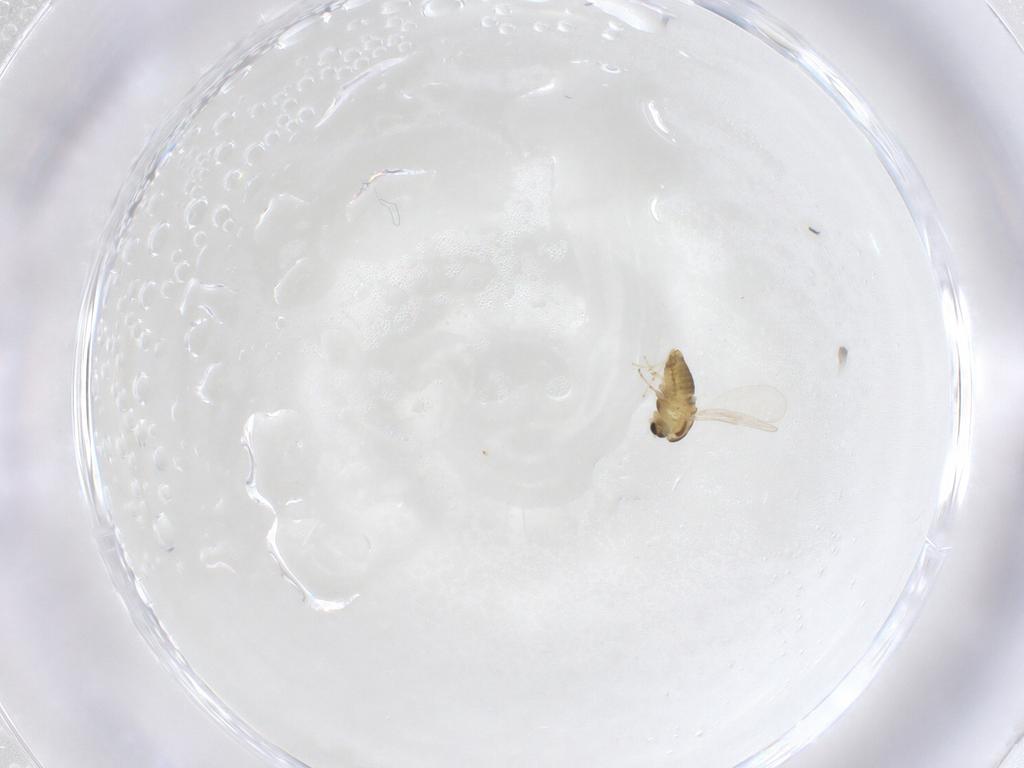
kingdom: Animalia
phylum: Arthropoda
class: Insecta
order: Diptera
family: Chironomidae
